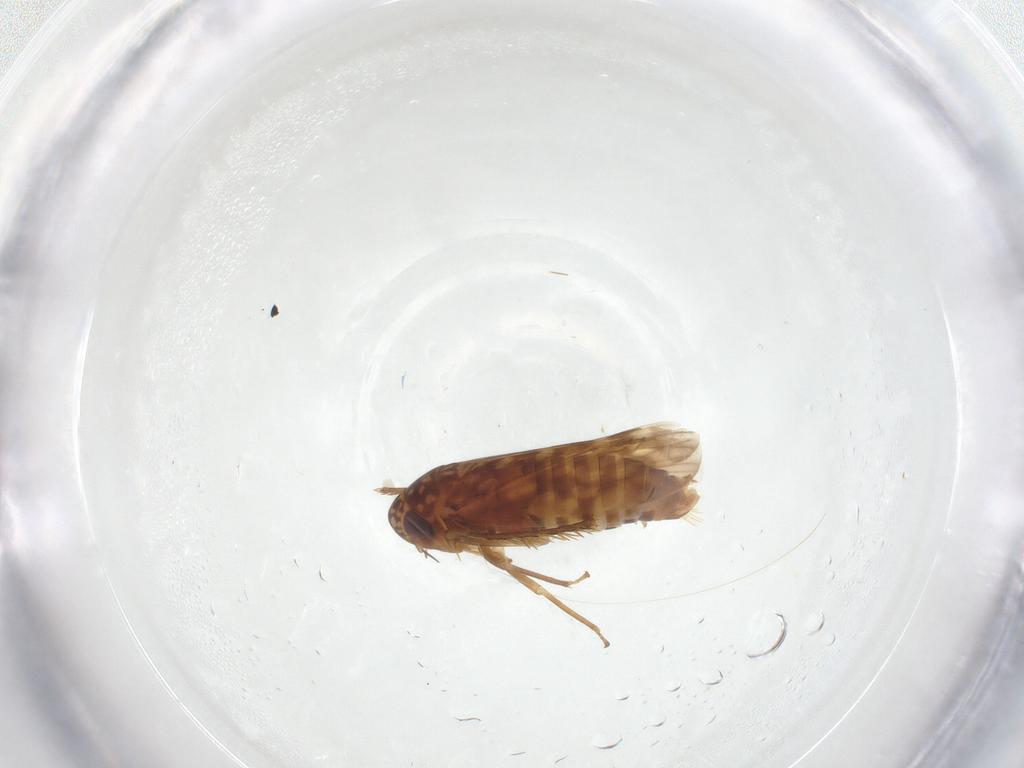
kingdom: Animalia
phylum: Arthropoda
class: Insecta
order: Hemiptera
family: Cicadellidae
